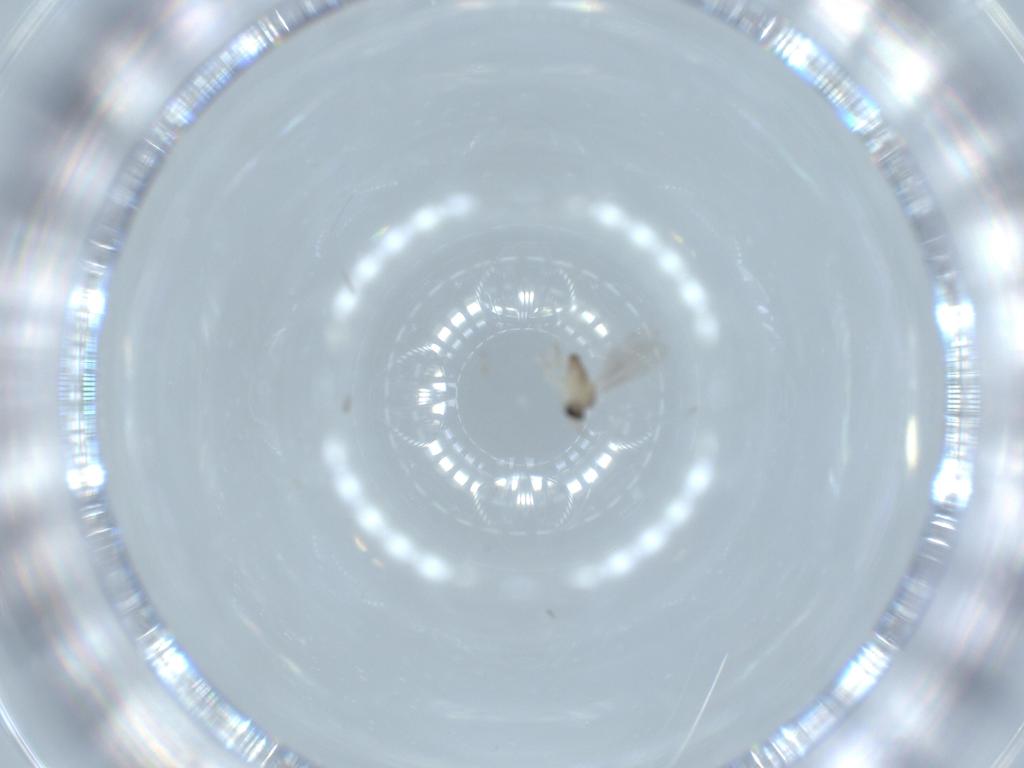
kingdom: Animalia
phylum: Arthropoda
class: Insecta
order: Diptera
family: Cecidomyiidae
